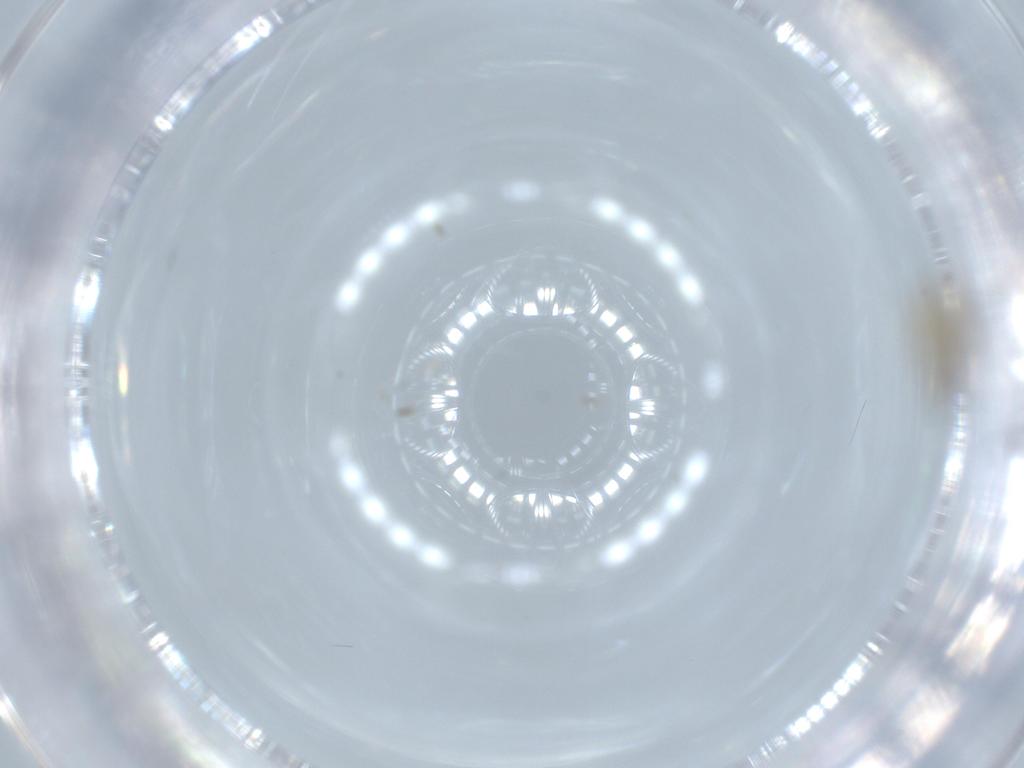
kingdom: Animalia
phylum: Arthropoda
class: Insecta
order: Diptera
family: Cecidomyiidae
